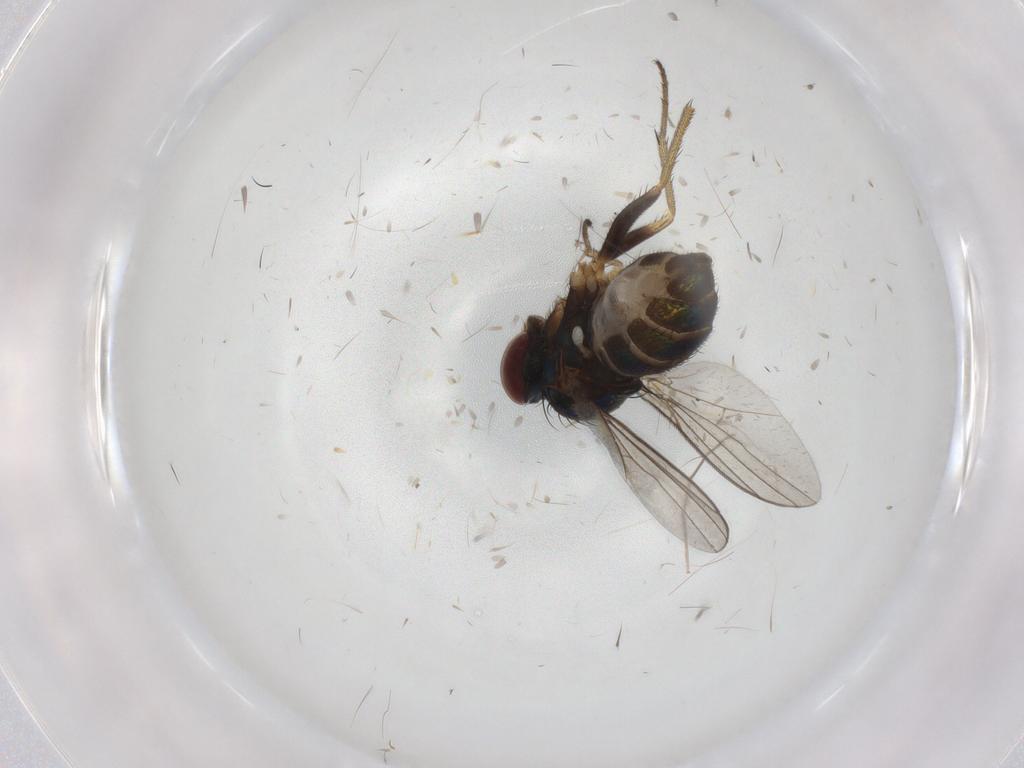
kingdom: Animalia
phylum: Arthropoda
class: Insecta
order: Diptera
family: Dolichopodidae
